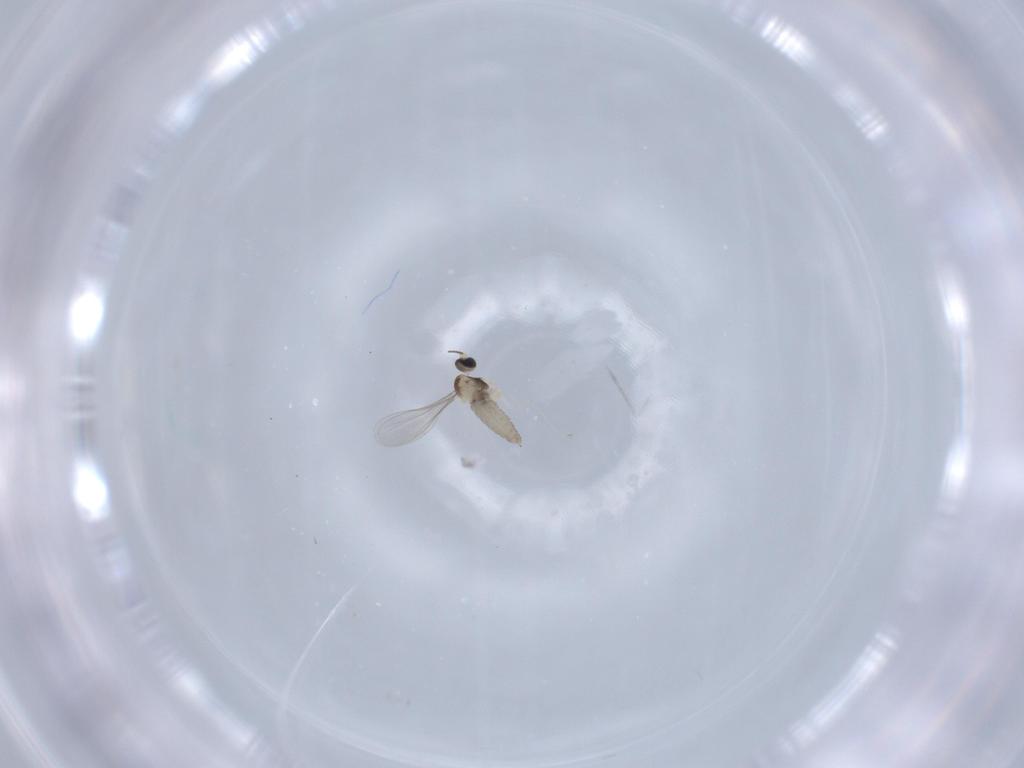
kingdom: Animalia
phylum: Arthropoda
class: Insecta
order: Diptera
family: Cecidomyiidae
